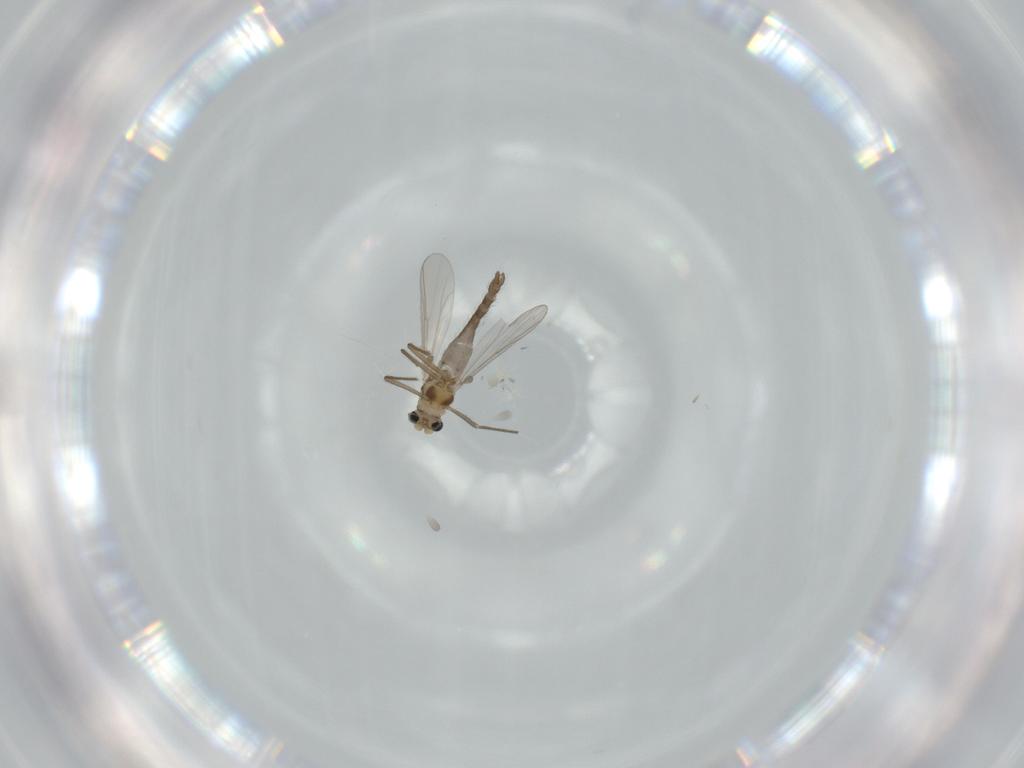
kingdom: Animalia
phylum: Arthropoda
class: Insecta
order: Diptera
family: Chironomidae
